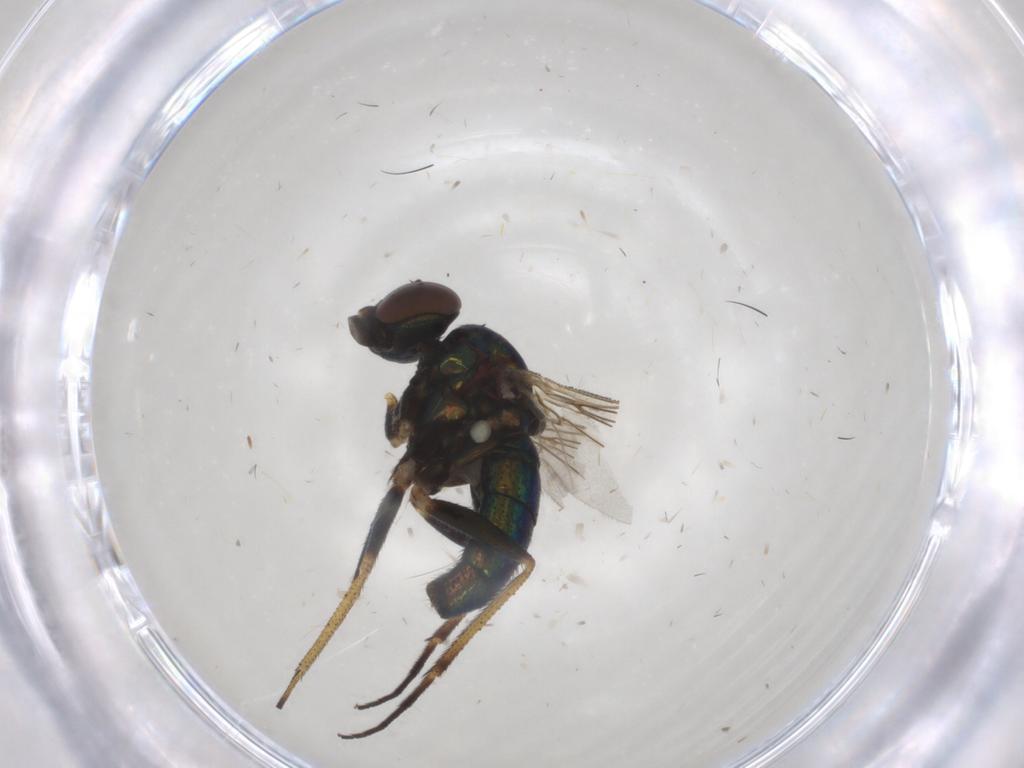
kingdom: Animalia
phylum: Arthropoda
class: Insecta
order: Diptera
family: Dolichopodidae
